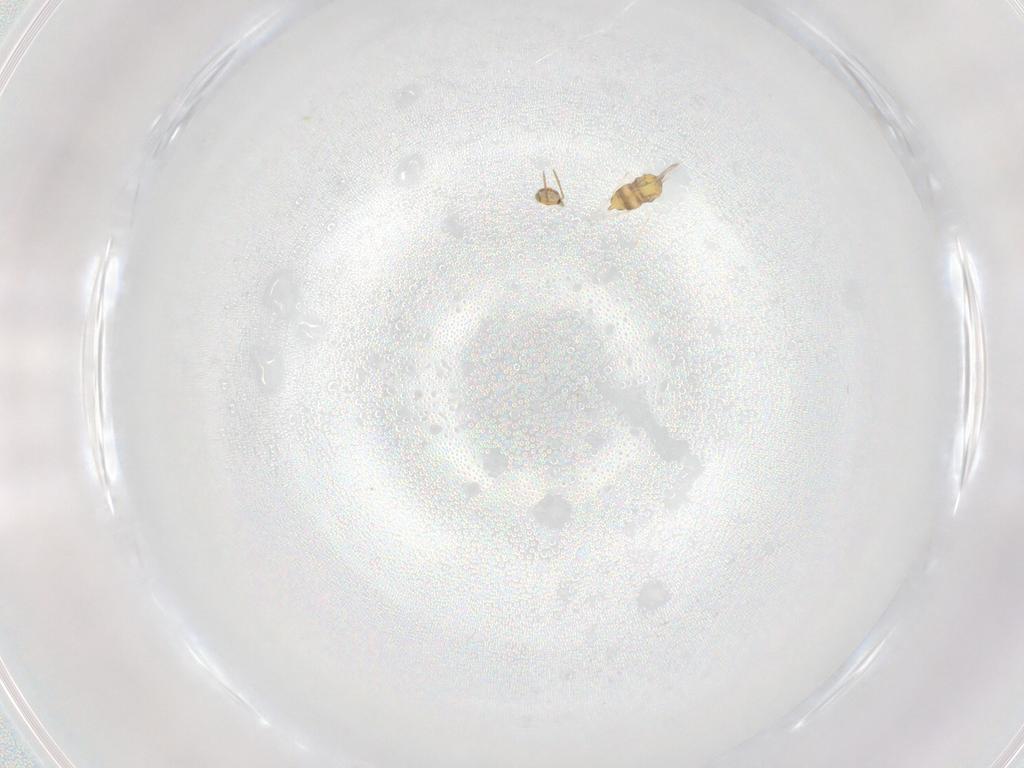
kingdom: Animalia
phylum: Arthropoda
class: Insecta
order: Hymenoptera
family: Aphelinidae
